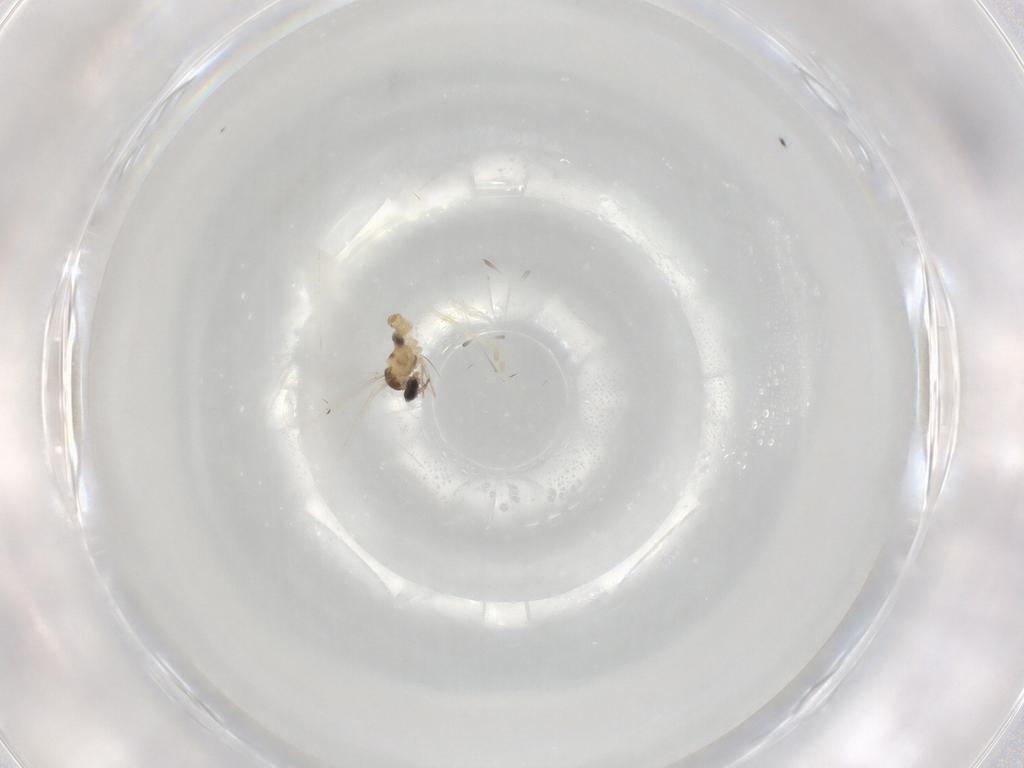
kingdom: Animalia
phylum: Arthropoda
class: Insecta
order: Diptera
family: Cecidomyiidae
